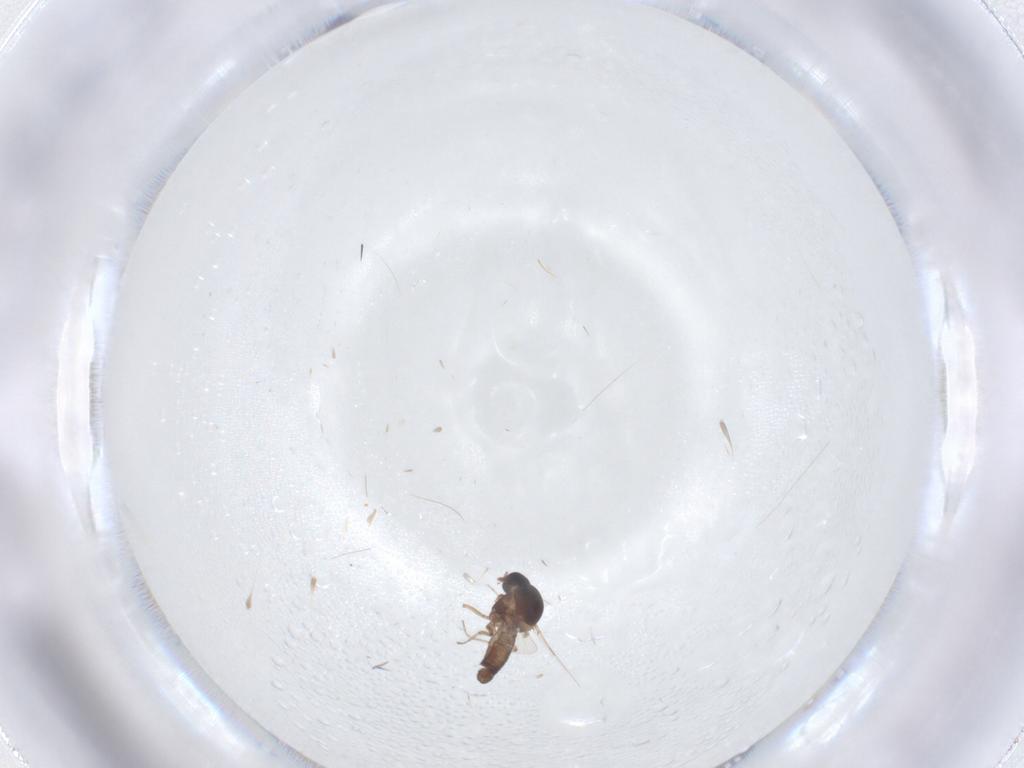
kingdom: Animalia
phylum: Arthropoda
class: Insecta
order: Diptera
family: Ceratopogonidae
